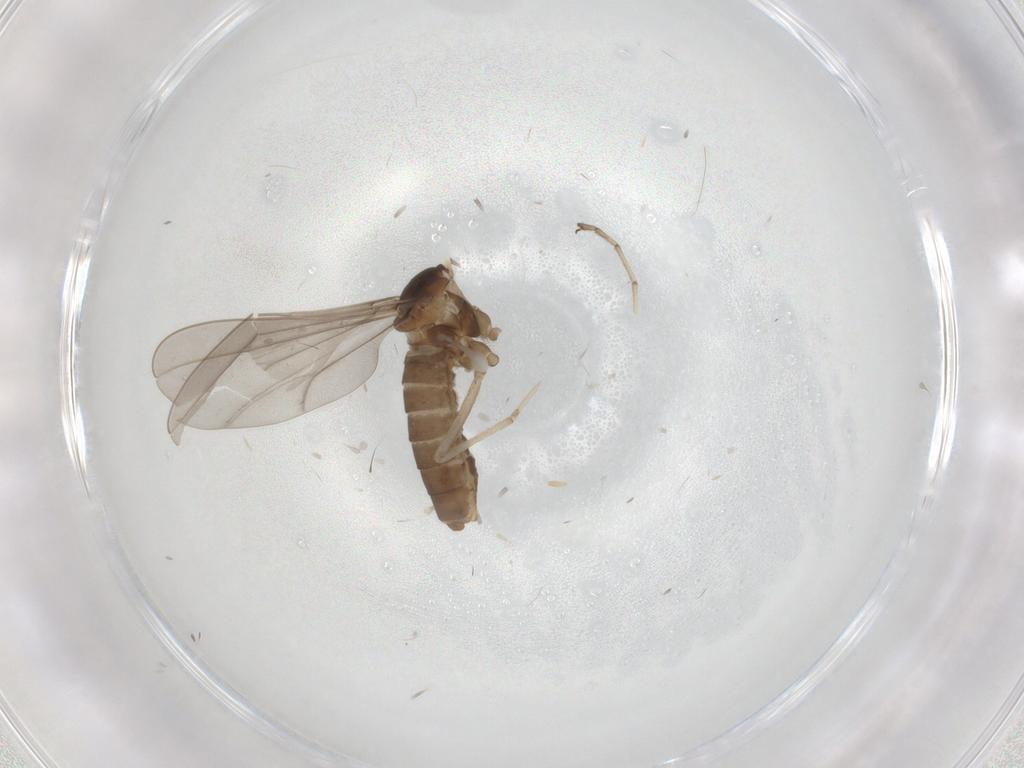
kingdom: Animalia
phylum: Arthropoda
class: Insecta
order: Diptera
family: Cecidomyiidae
